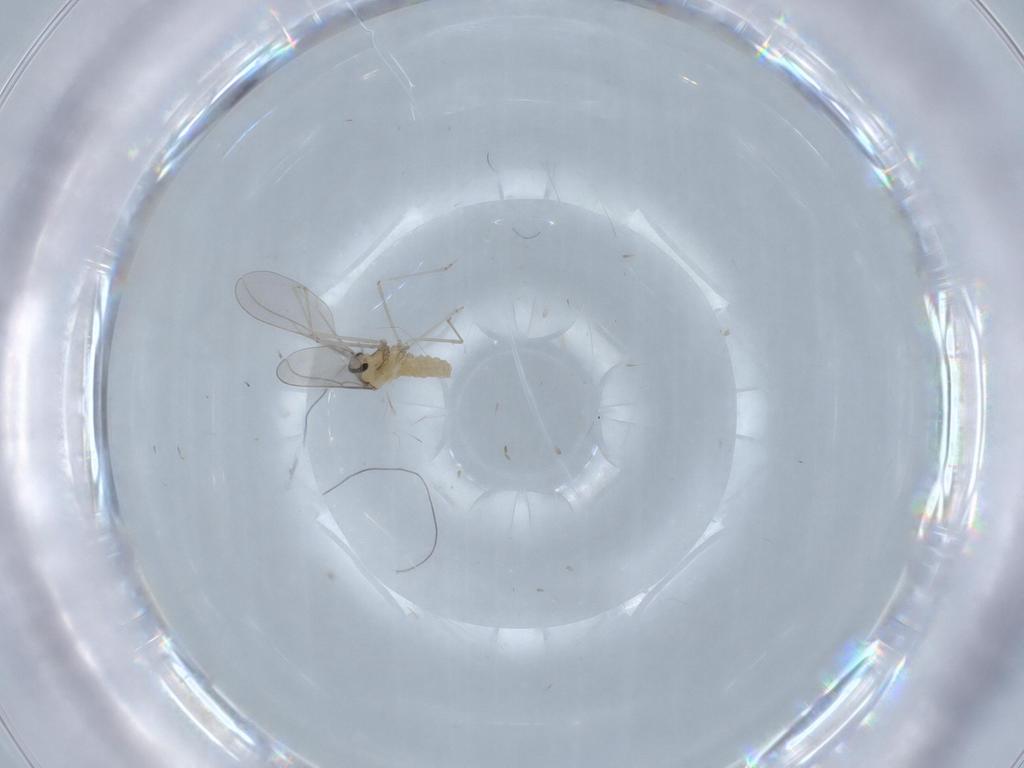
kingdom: Animalia
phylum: Arthropoda
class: Insecta
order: Diptera
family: Cecidomyiidae
